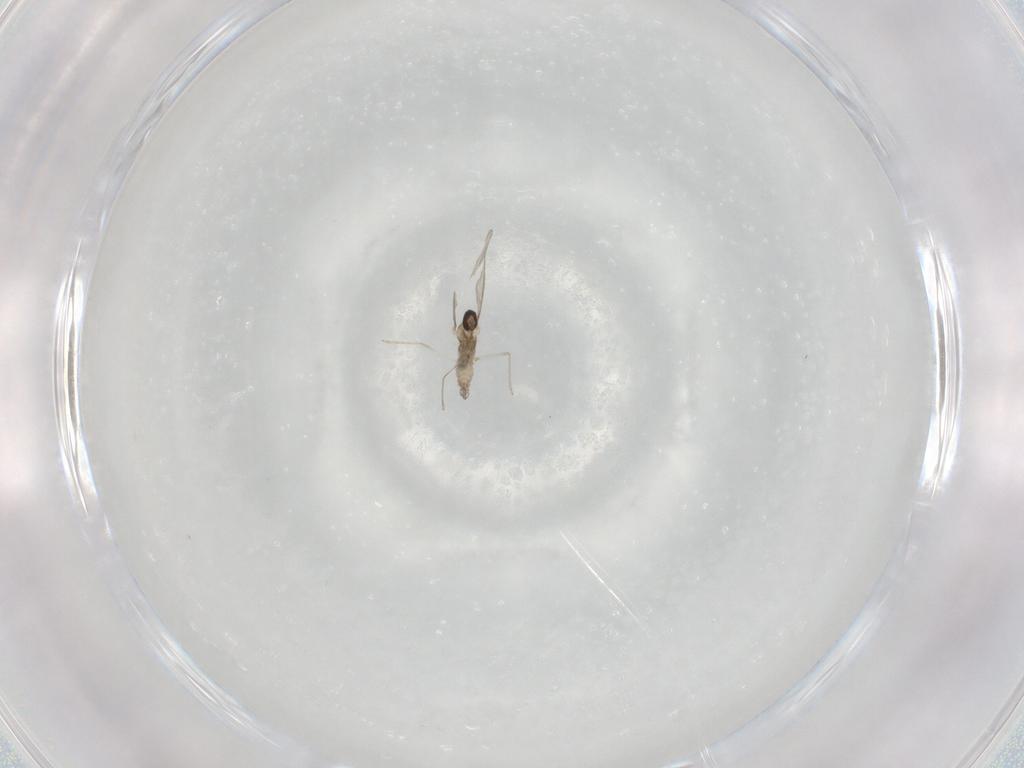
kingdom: Animalia
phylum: Arthropoda
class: Insecta
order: Diptera
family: Cecidomyiidae
